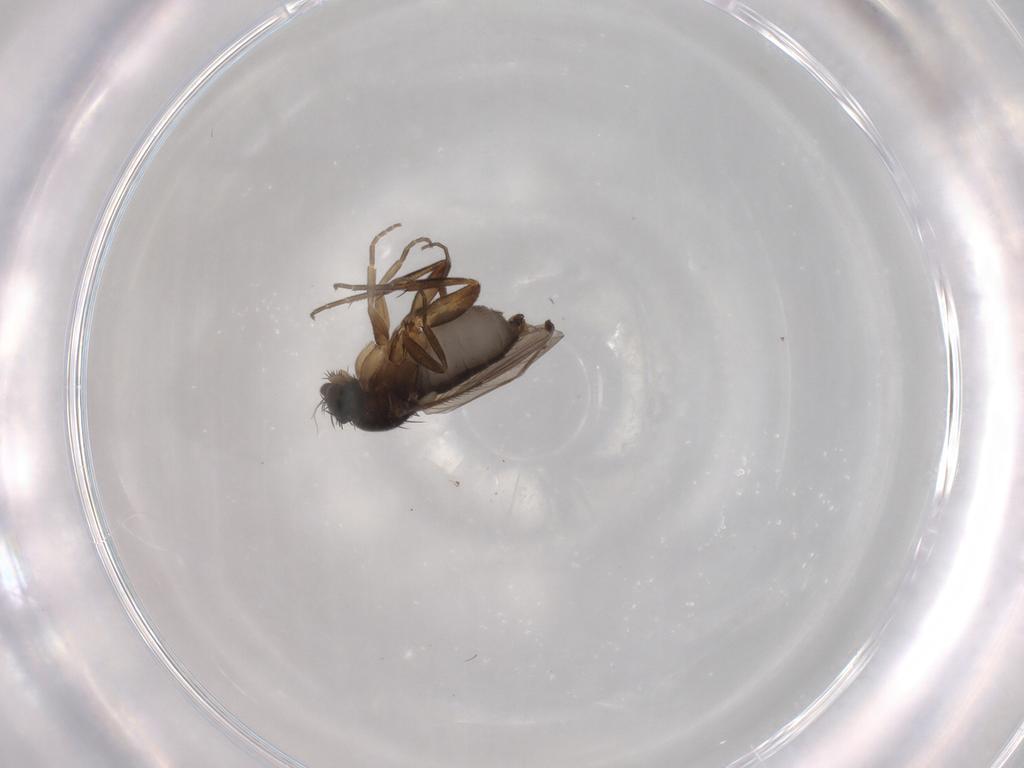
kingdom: Animalia
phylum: Arthropoda
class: Insecta
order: Diptera
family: Phoridae
